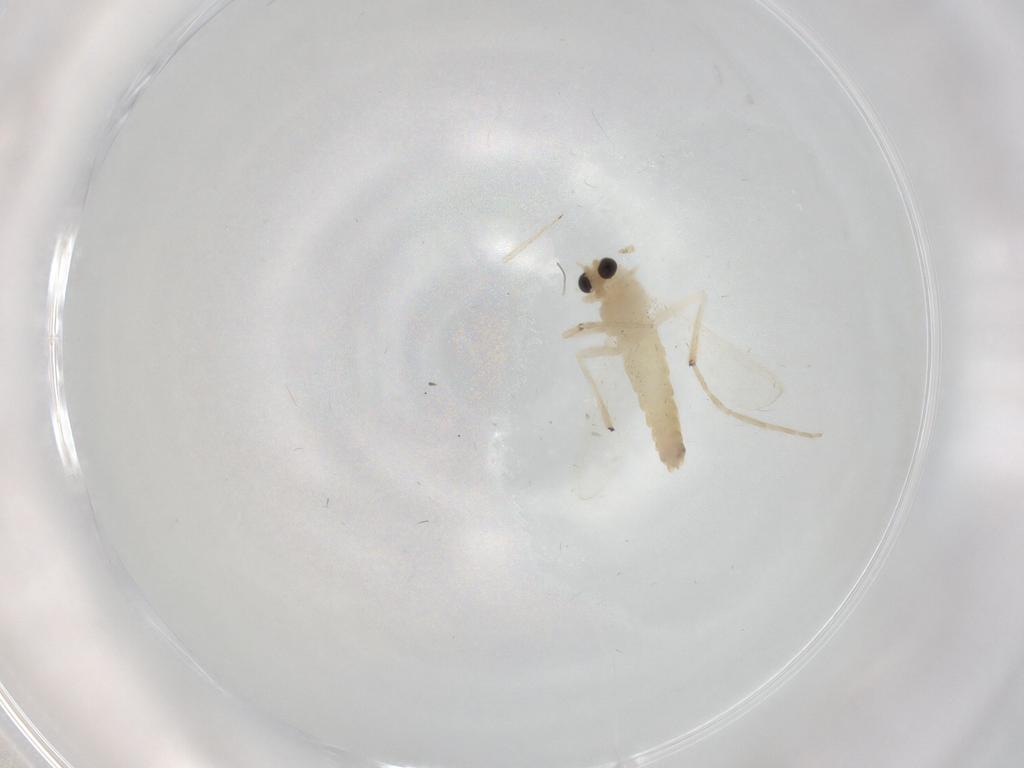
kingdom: Animalia
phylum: Arthropoda
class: Insecta
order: Diptera
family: Chironomidae
